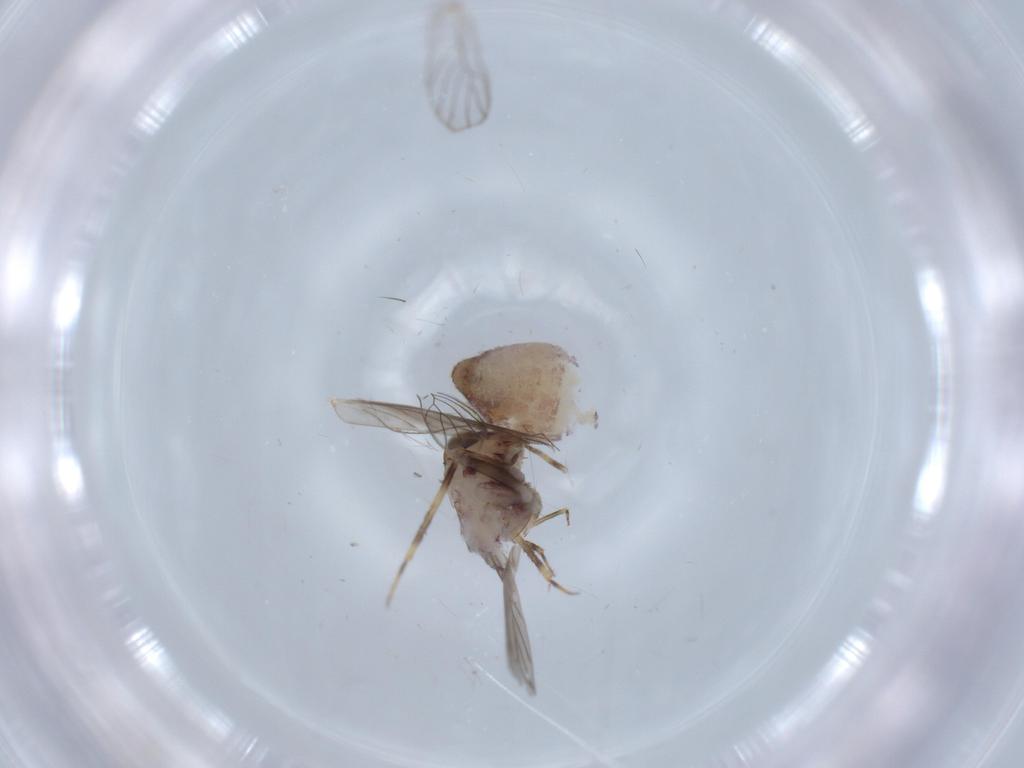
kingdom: Animalia
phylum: Arthropoda
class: Insecta
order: Psocodea
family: Lepidopsocidae
